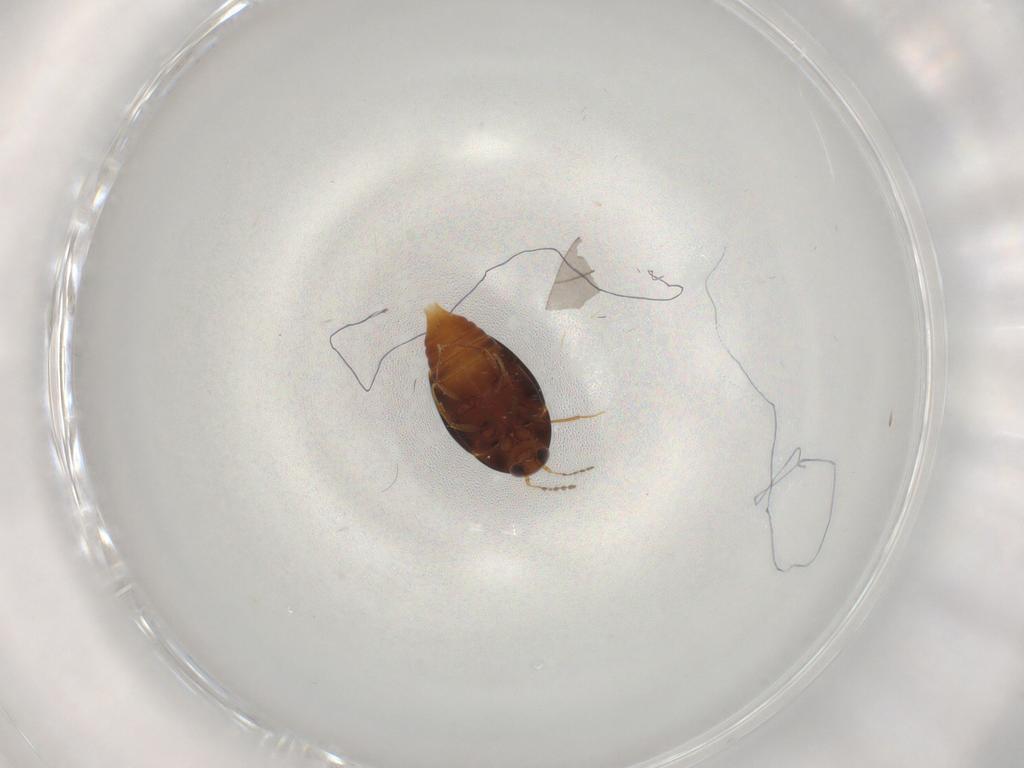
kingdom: Animalia
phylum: Arthropoda
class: Insecta
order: Coleoptera
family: Staphylinidae
